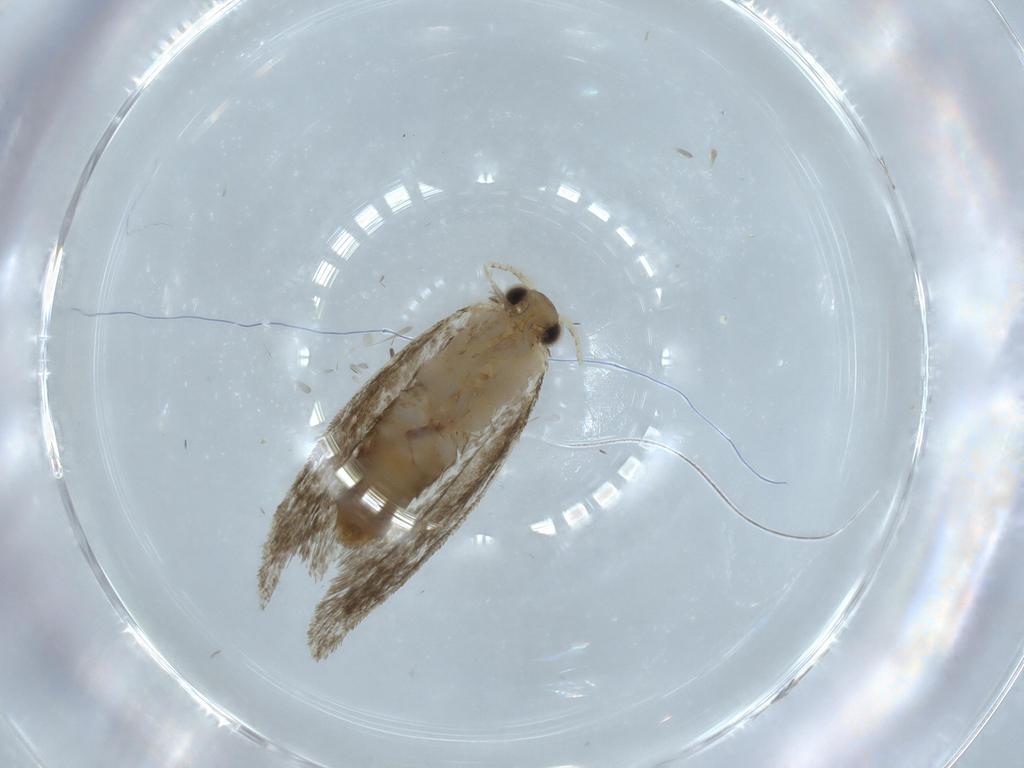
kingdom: Animalia
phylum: Arthropoda
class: Insecta
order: Lepidoptera
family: Tineidae
